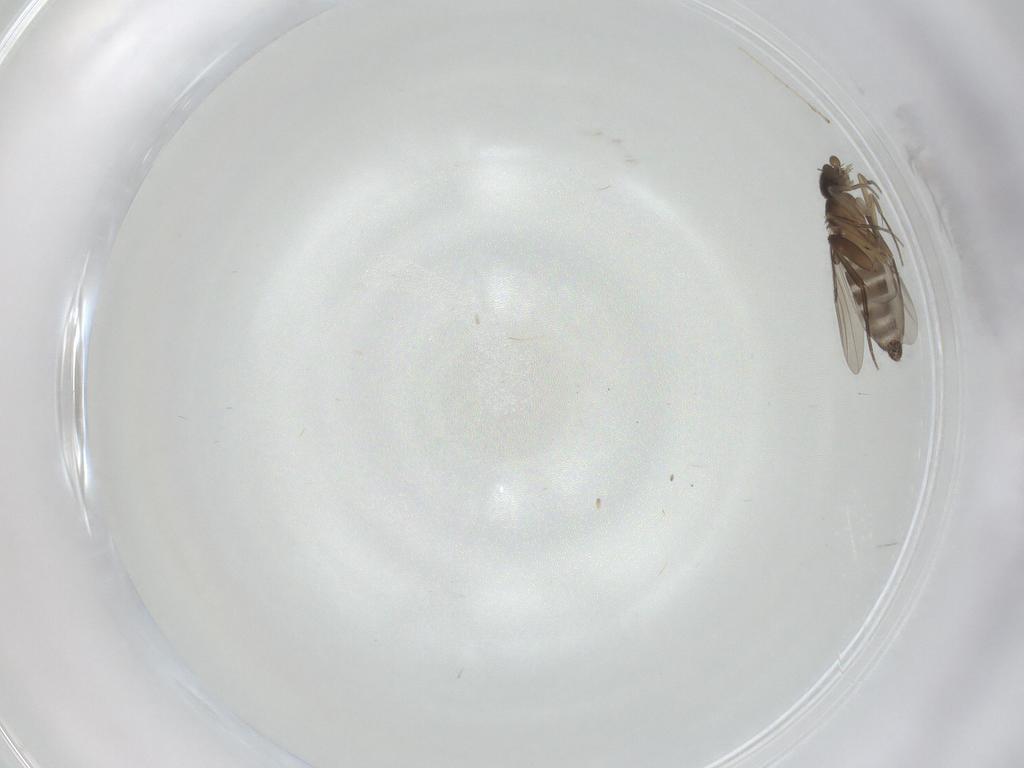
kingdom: Animalia
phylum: Arthropoda
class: Insecta
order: Diptera
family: Phoridae
